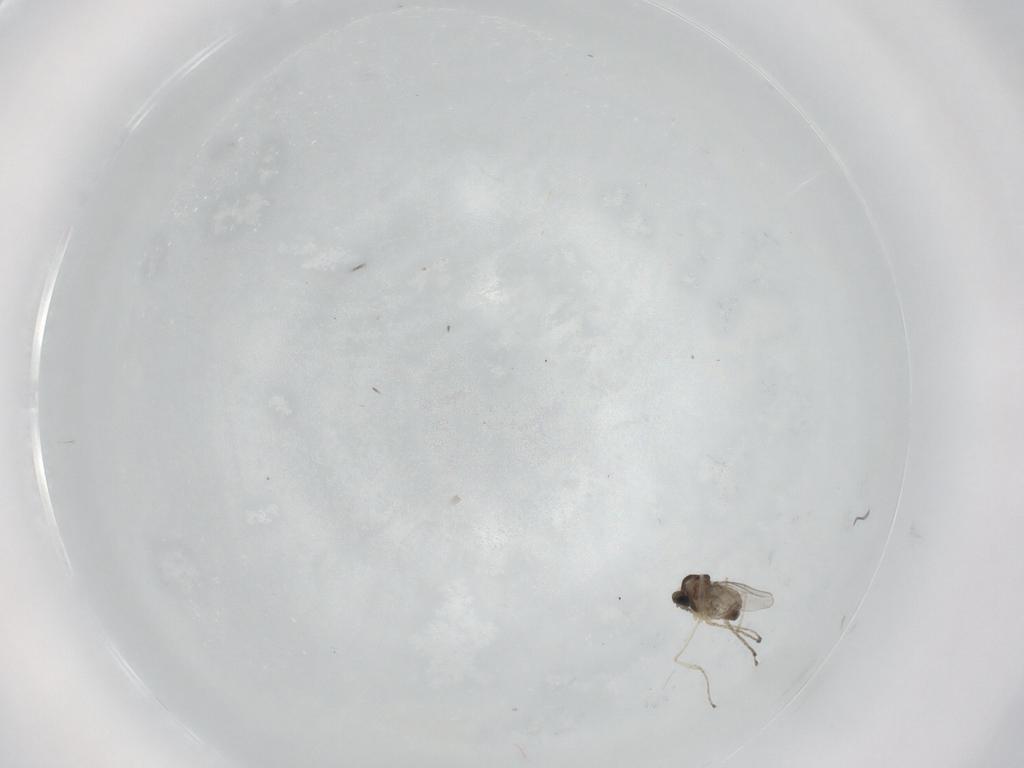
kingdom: Animalia
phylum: Arthropoda
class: Insecta
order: Diptera
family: Cecidomyiidae
